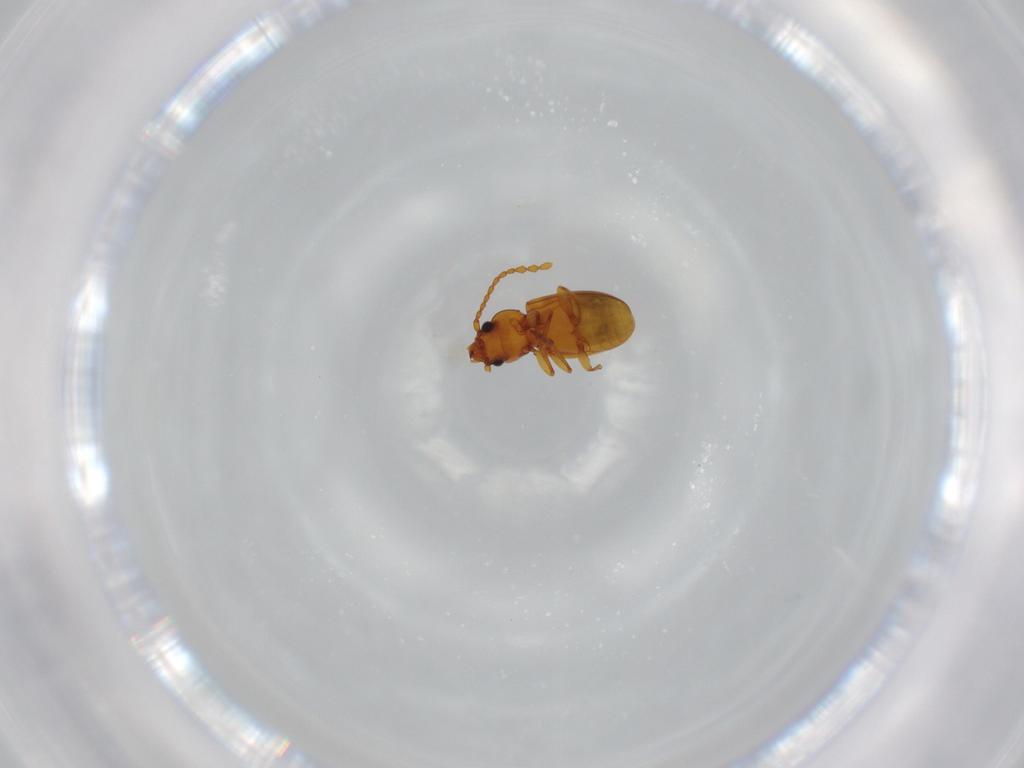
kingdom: Animalia
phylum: Arthropoda
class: Insecta
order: Coleoptera
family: Laemophloeidae
